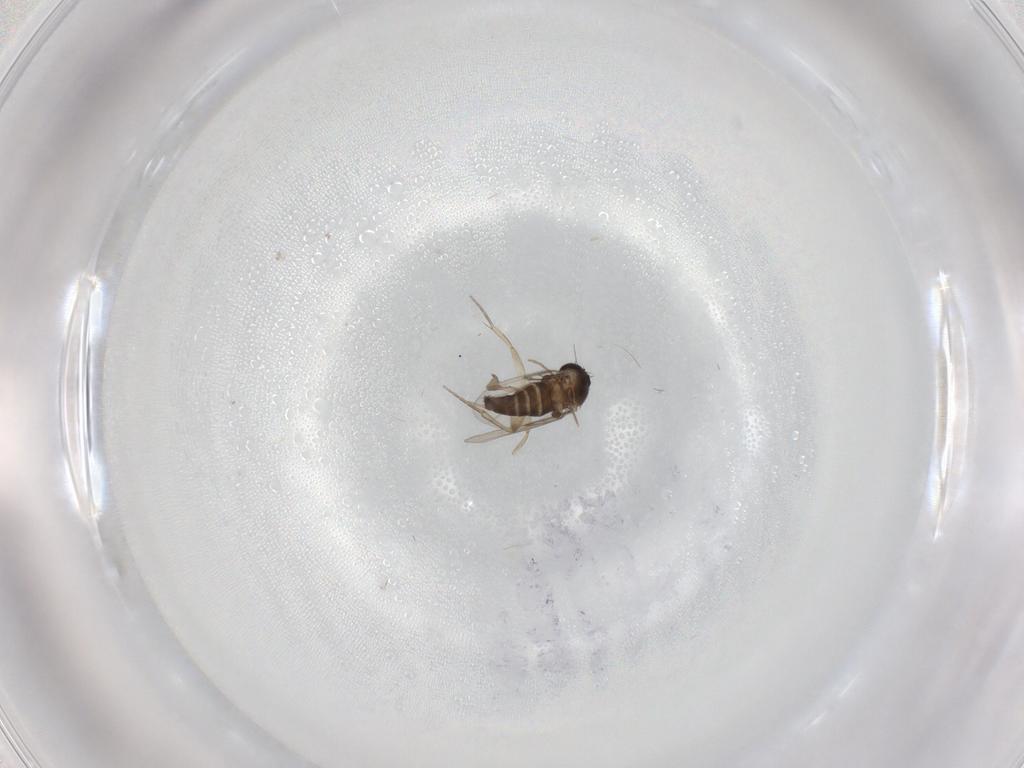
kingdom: Animalia
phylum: Arthropoda
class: Insecta
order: Diptera
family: Phoridae
